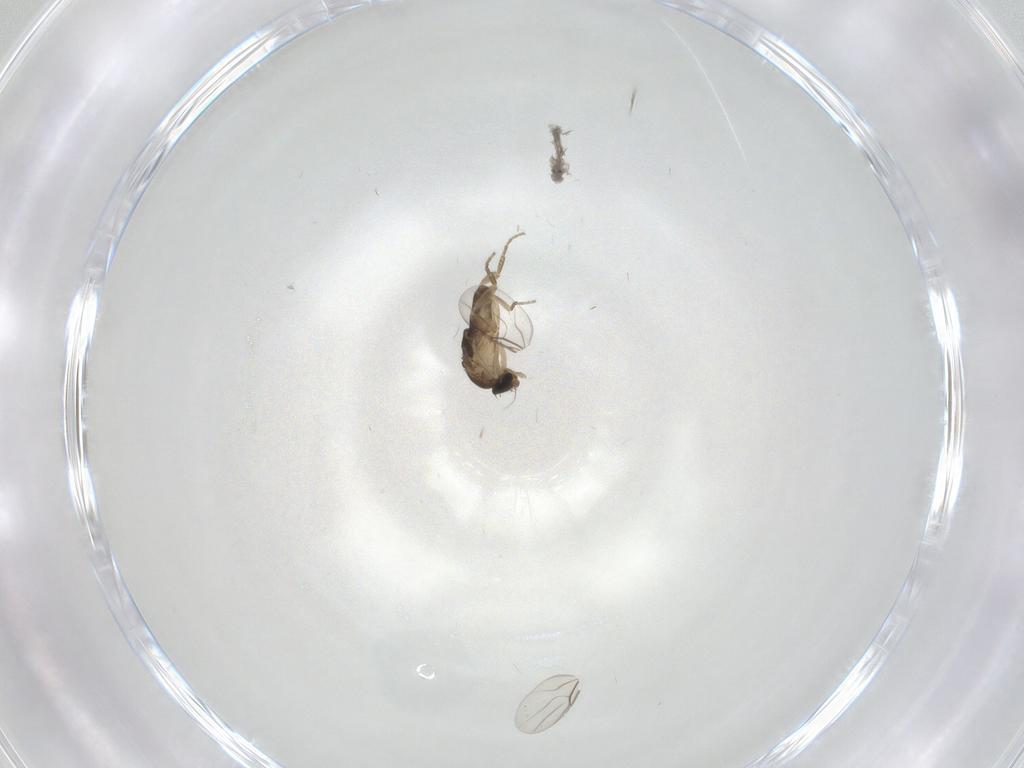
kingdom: Animalia
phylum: Arthropoda
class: Insecta
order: Diptera
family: Phoridae
